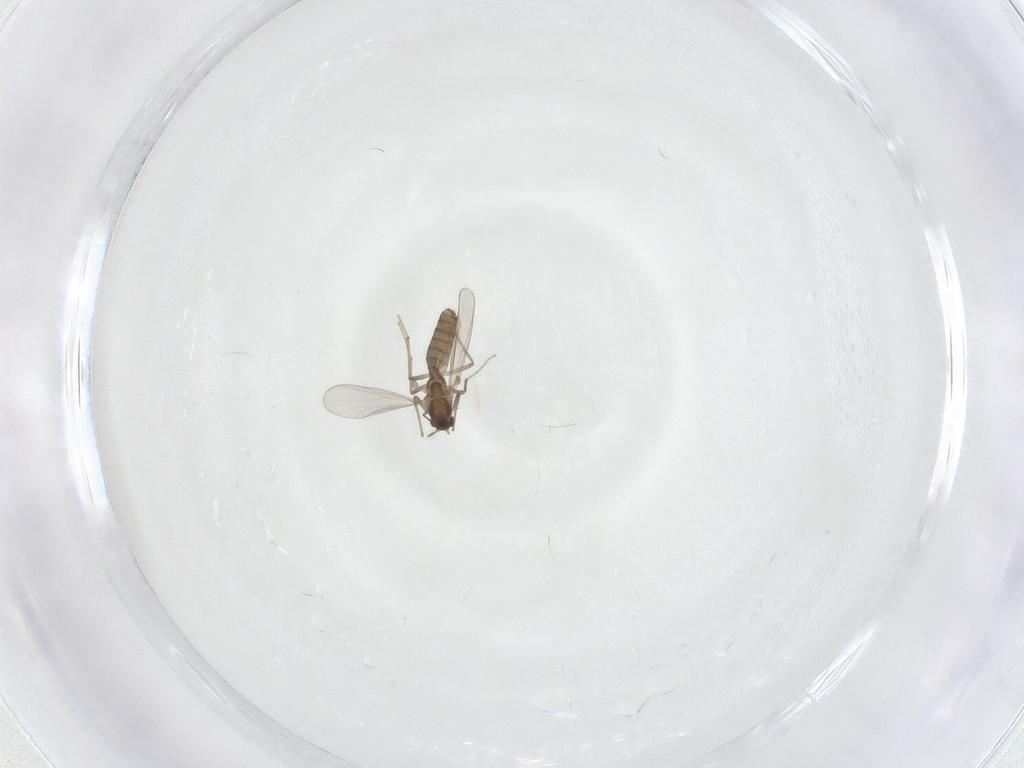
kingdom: Animalia
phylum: Arthropoda
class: Insecta
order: Diptera
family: Chironomidae
